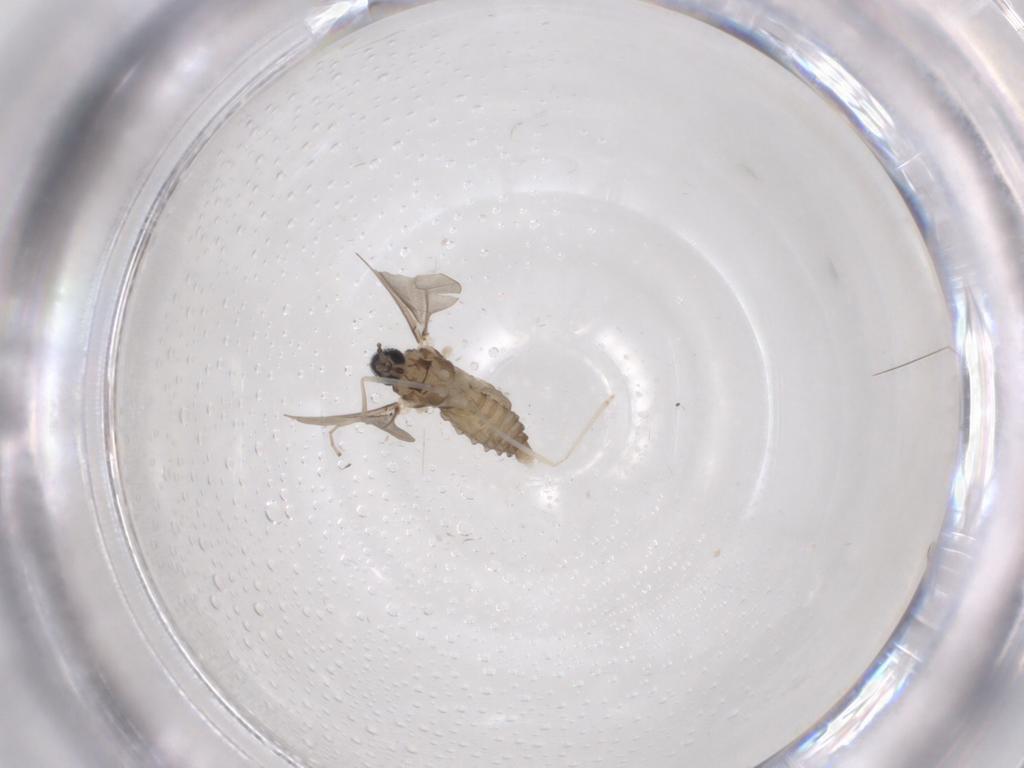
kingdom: Animalia
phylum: Arthropoda
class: Insecta
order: Diptera
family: Cecidomyiidae
